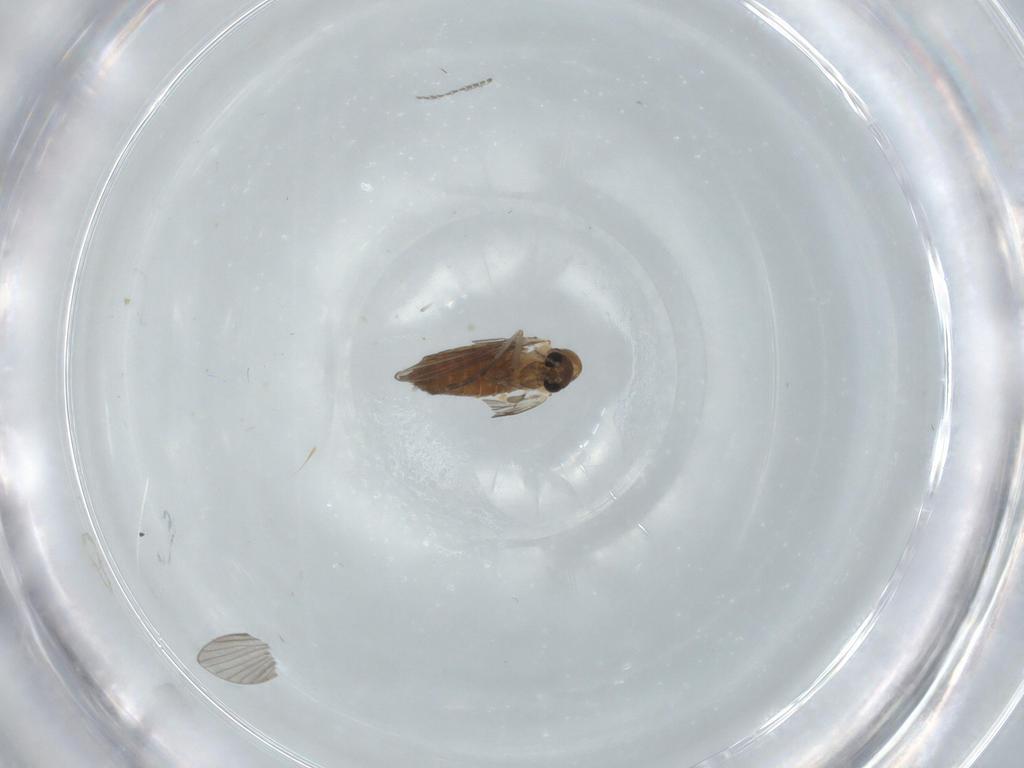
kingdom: Animalia
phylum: Arthropoda
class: Insecta
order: Diptera
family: Psychodidae
